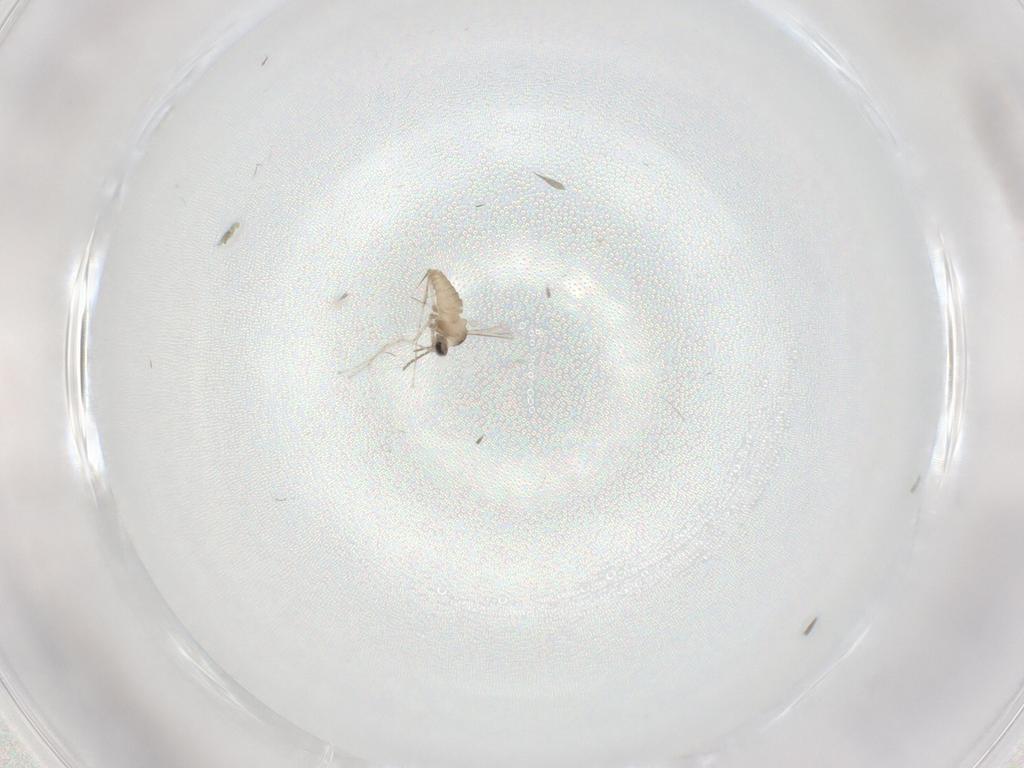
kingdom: Animalia
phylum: Arthropoda
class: Insecta
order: Diptera
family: Cecidomyiidae
